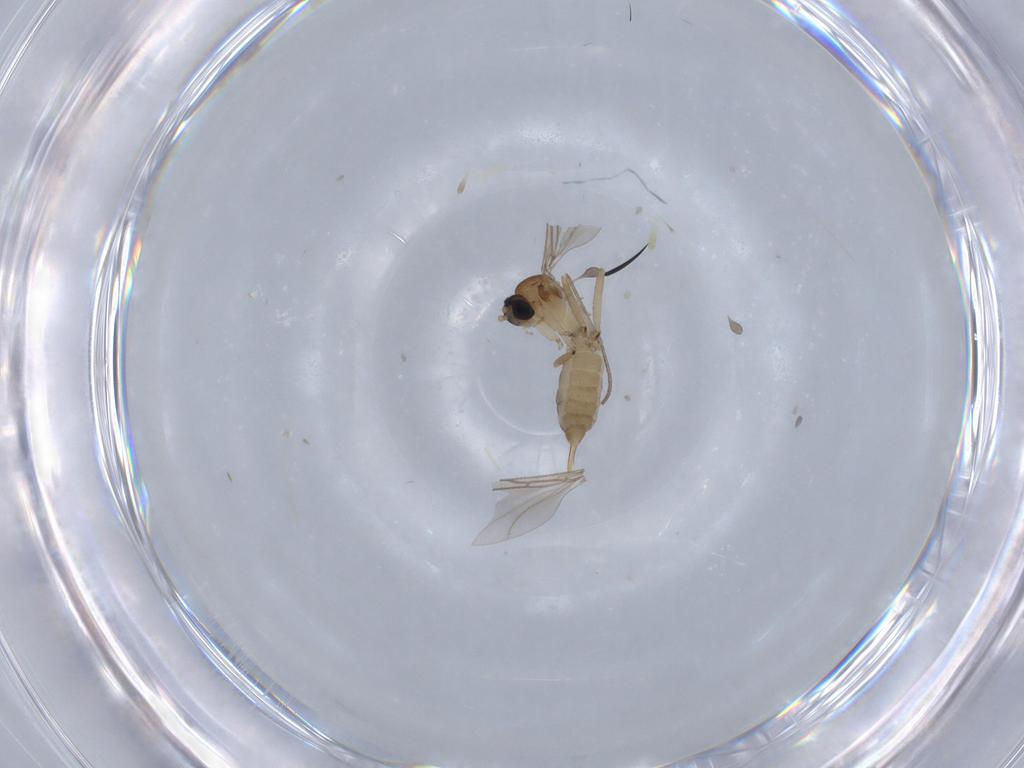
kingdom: Animalia
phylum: Arthropoda
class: Insecta
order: Diptera
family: Sciaridae
